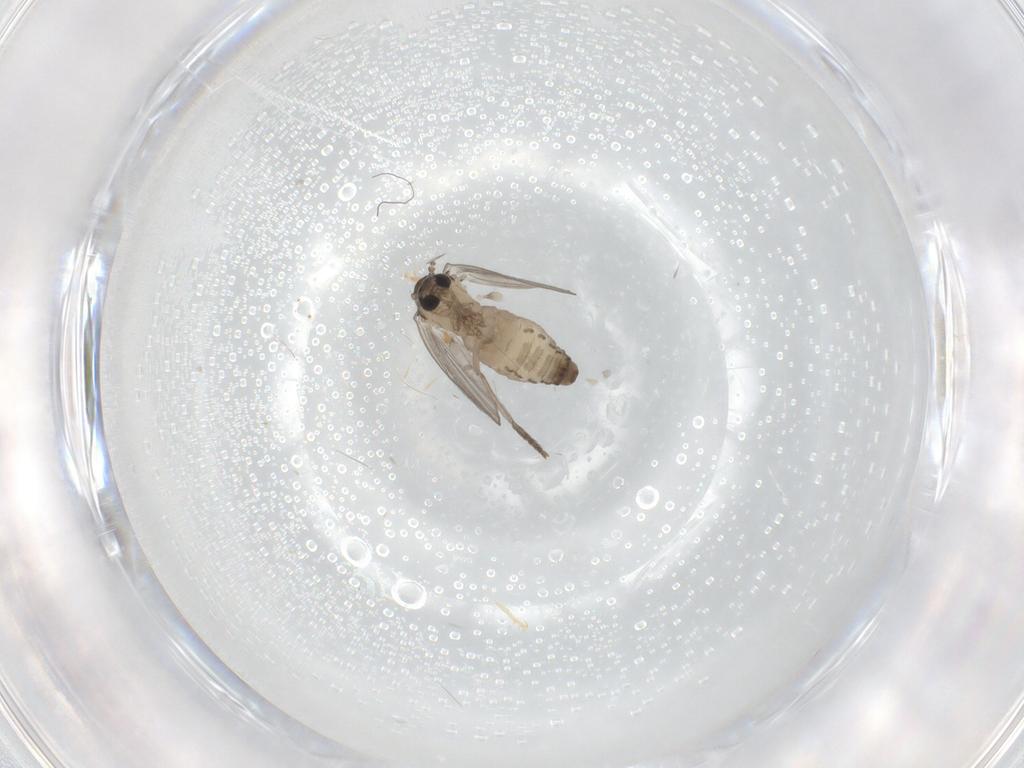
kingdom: Animalia
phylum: Arthropoda
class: Insecta
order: Diptera
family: Psychodidae
